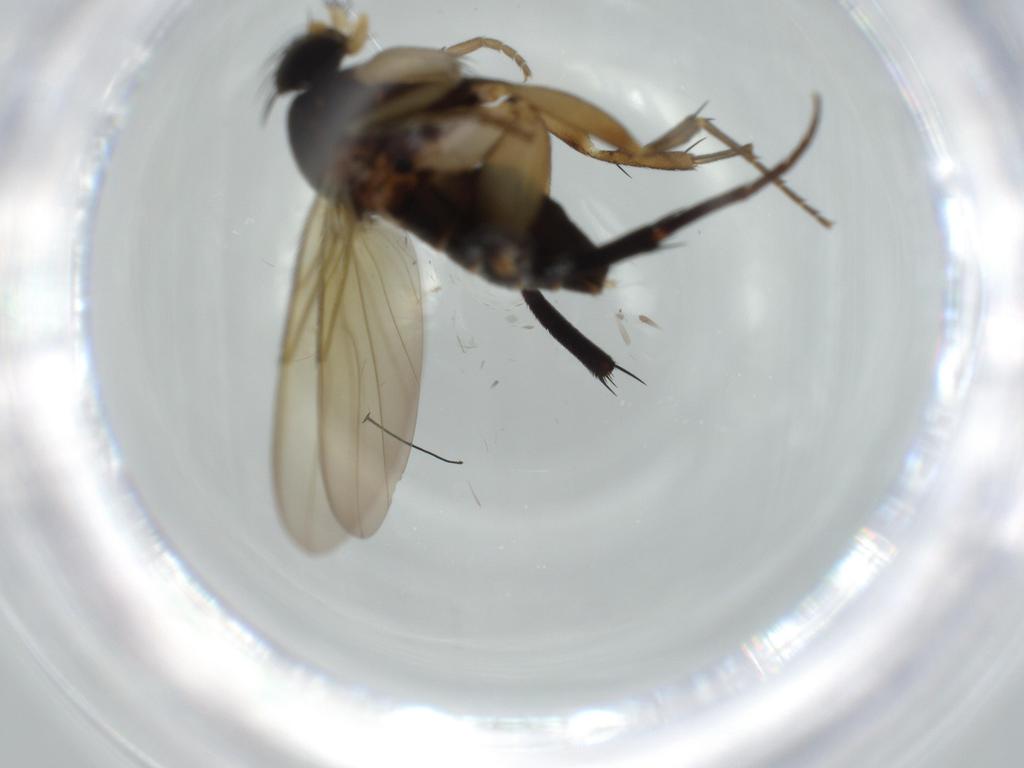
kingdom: Animalia
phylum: Arthropoda
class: Insecta
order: Diptera
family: Phoridae
